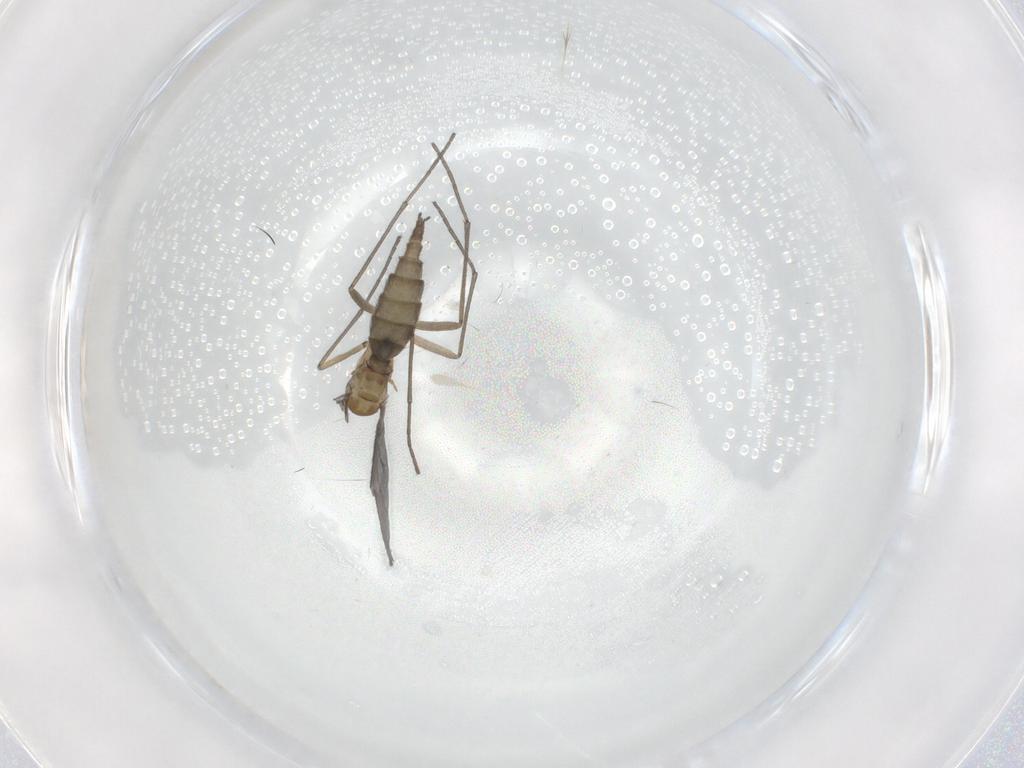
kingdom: Animalia
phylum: Arthropoda
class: Insecta
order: Diptera
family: Sciaridae
